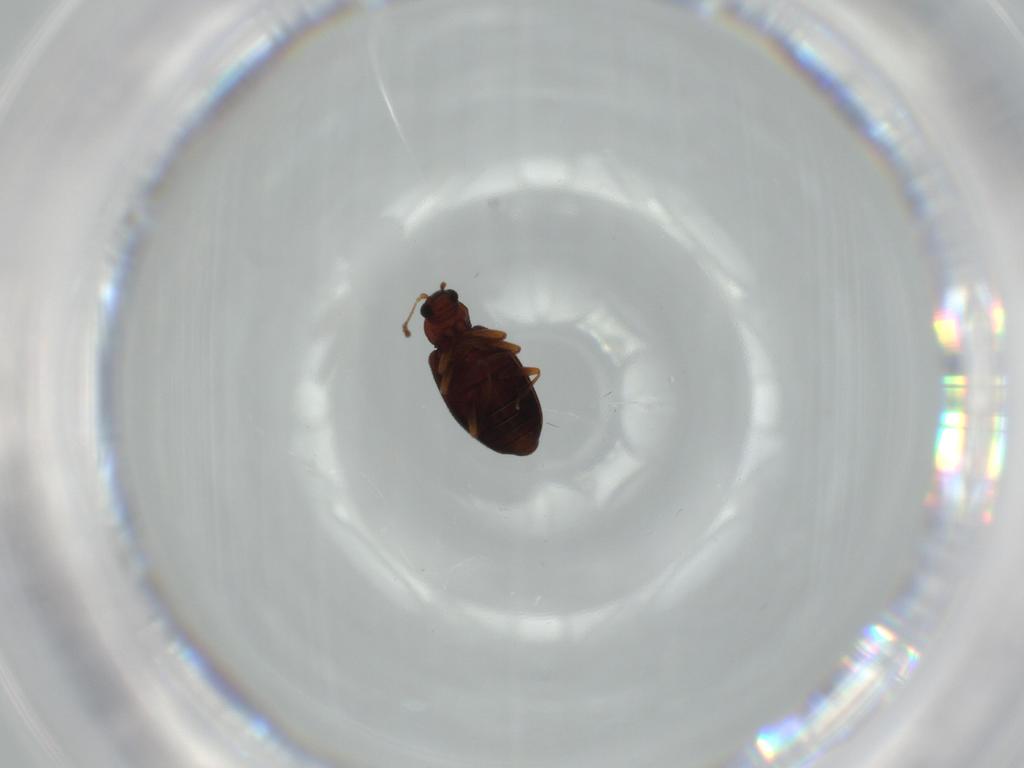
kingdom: Animalia
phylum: Arthropoda
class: Insecta
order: Coleoptera
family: Latridiidae
